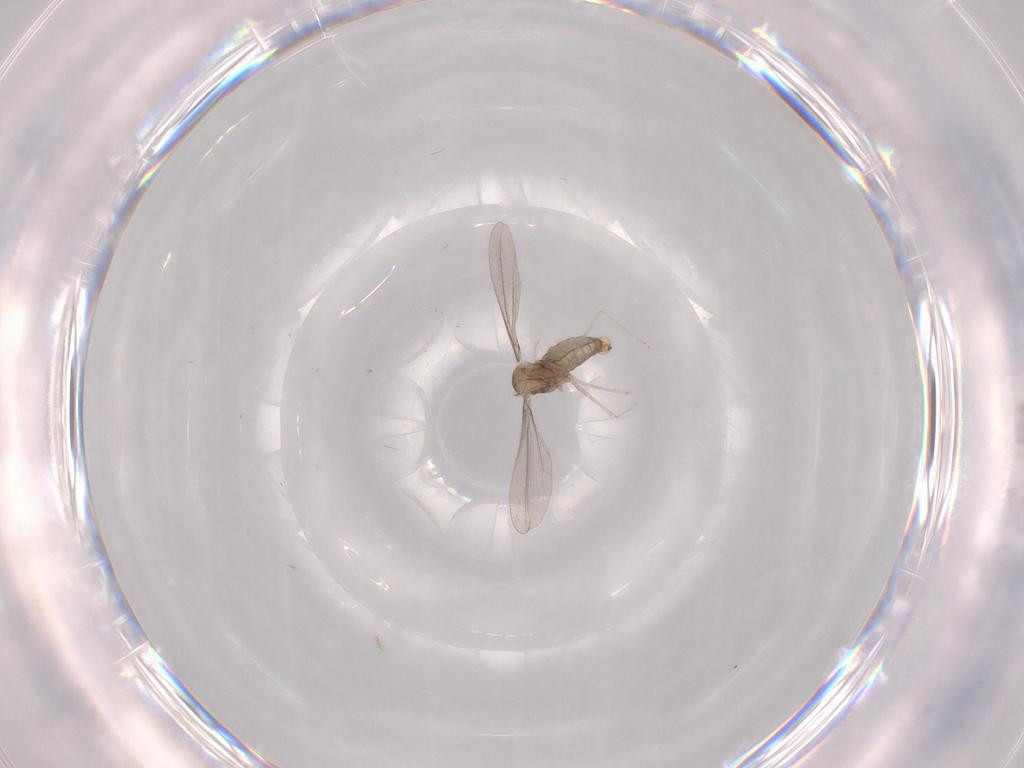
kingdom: Animalia
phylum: Arthropoda
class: Insecta
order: Diptera
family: Cecidomyiidae
